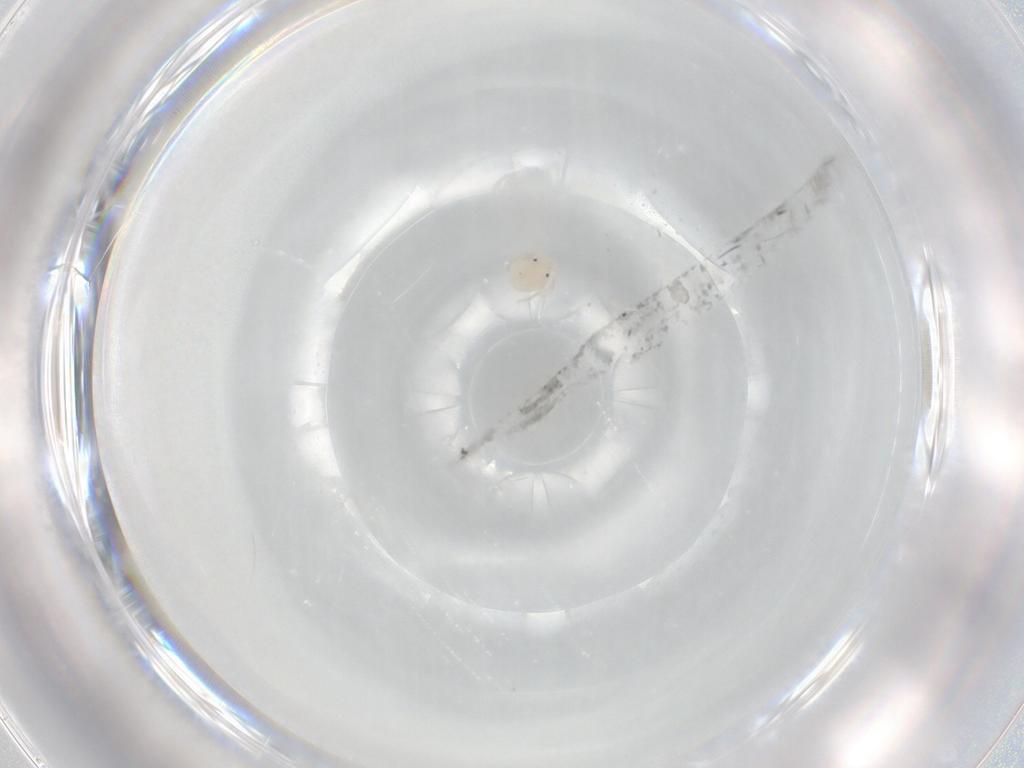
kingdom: Animalia
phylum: Arthropoda
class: Arachnida
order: Trombidiformes
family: Lebertiidae
